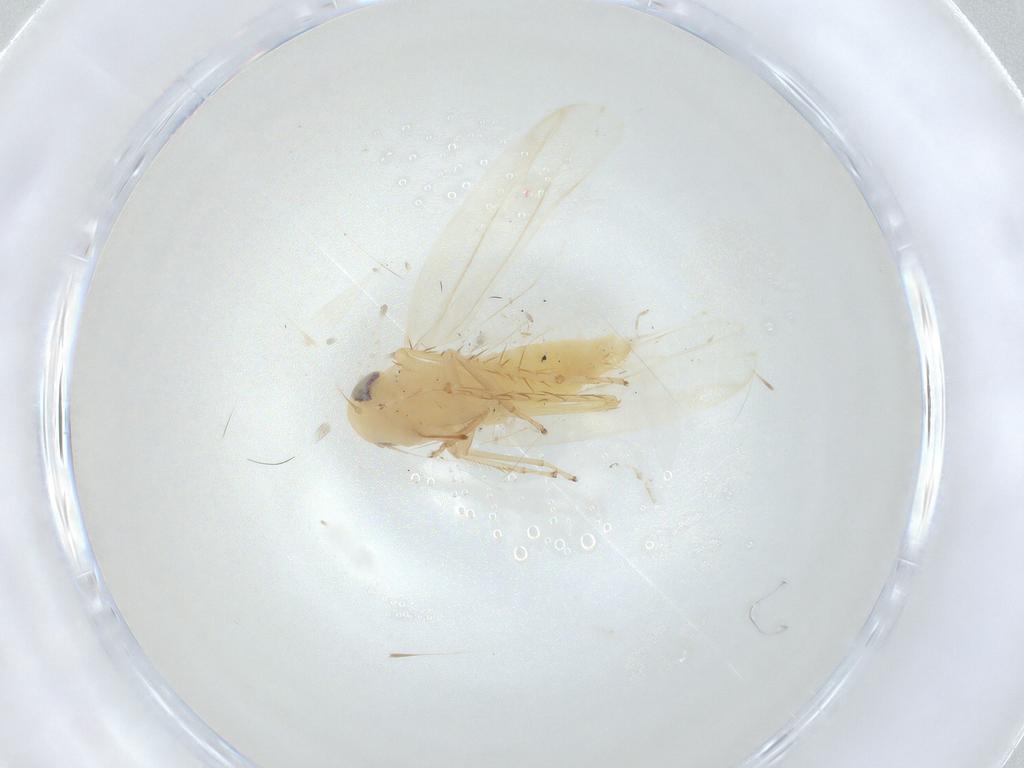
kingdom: Animalia
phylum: Arthropoda
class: Insecta
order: Hemiptera
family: Cicadellidae
